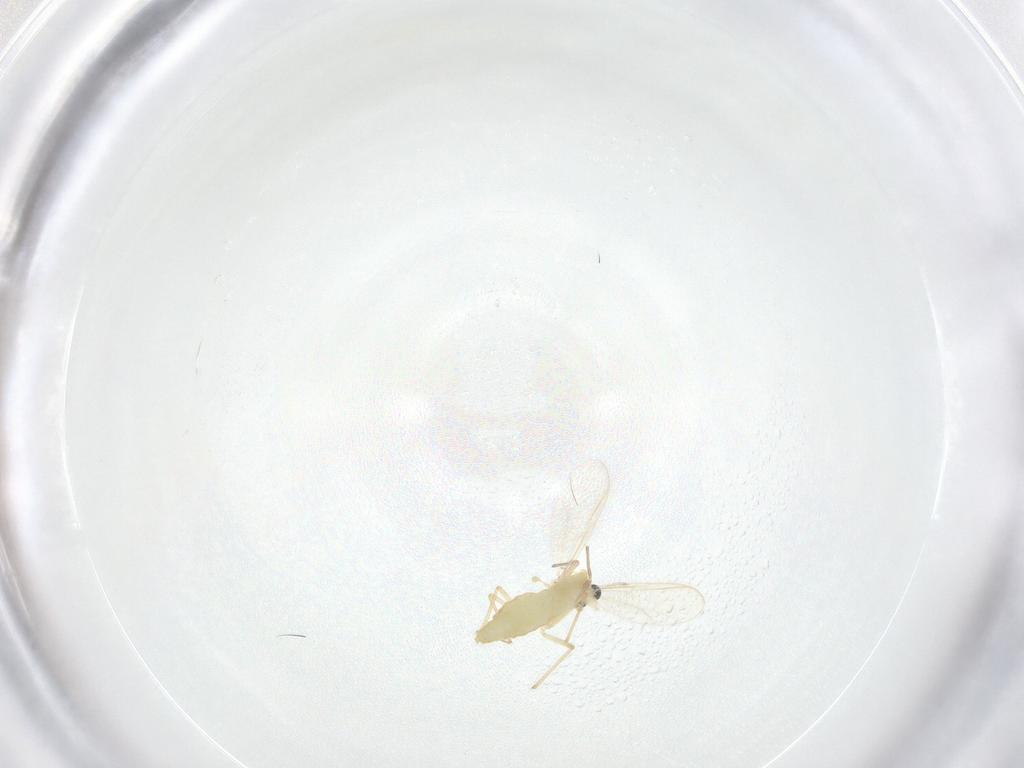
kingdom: Animalia
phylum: Arthropoda
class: Insecta
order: Diptera
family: Chironomidae
